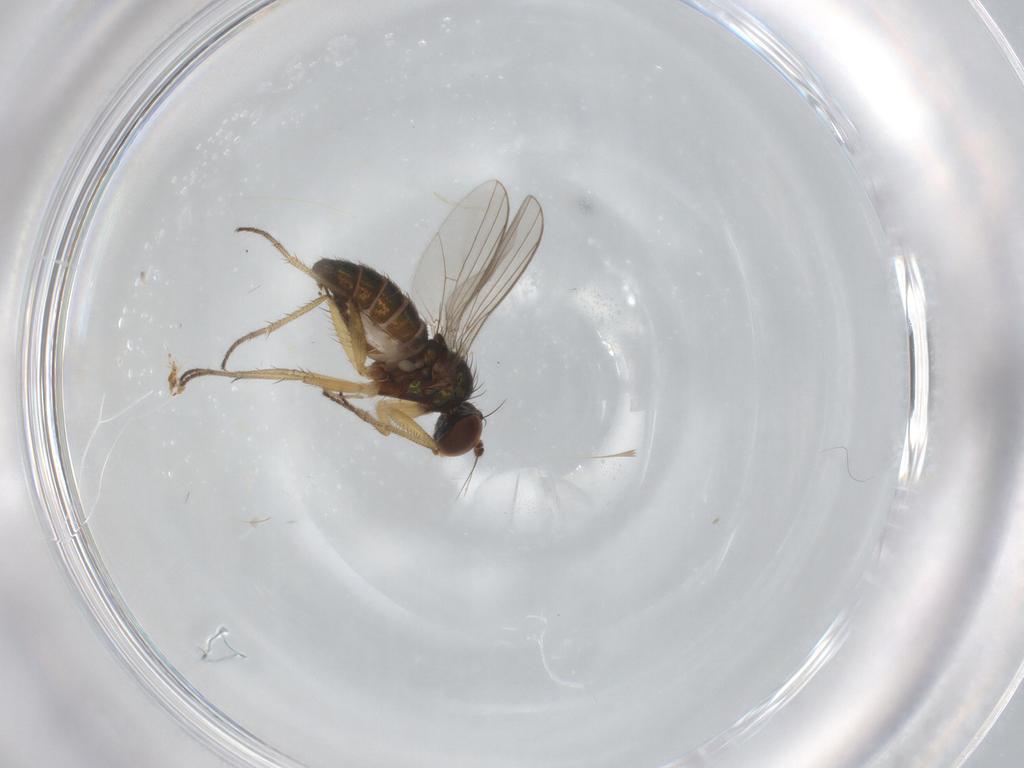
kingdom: Animalia
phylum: Arthropoda
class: Insecta
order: Diptera
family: Dolichopodidae
